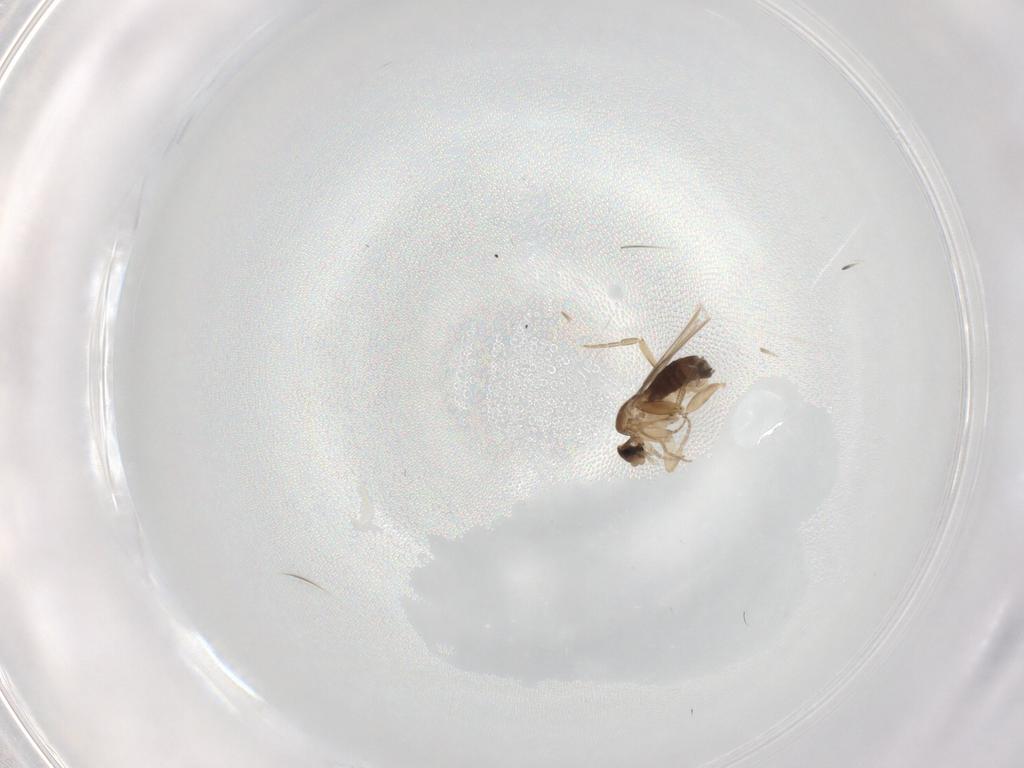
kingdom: Animalia
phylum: Arthropoda
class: Insecta
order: Diptera
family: Phoridae
